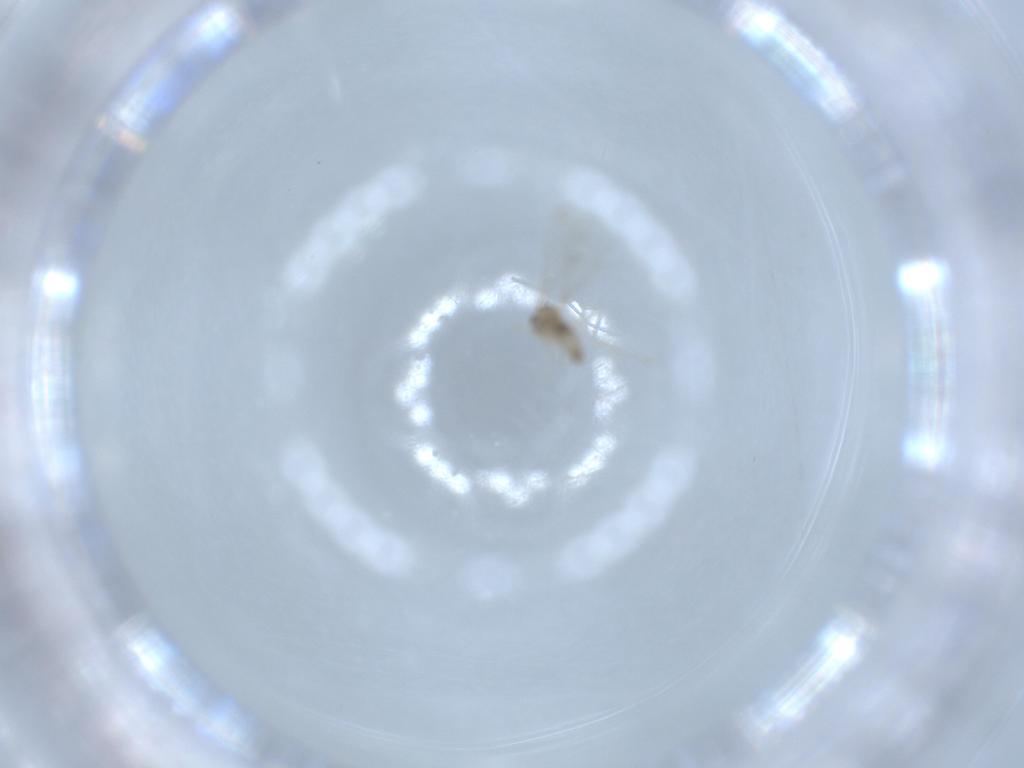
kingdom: Animalia
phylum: Arthropoda
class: Insecta
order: Diptera
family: Cecidomyiidae
